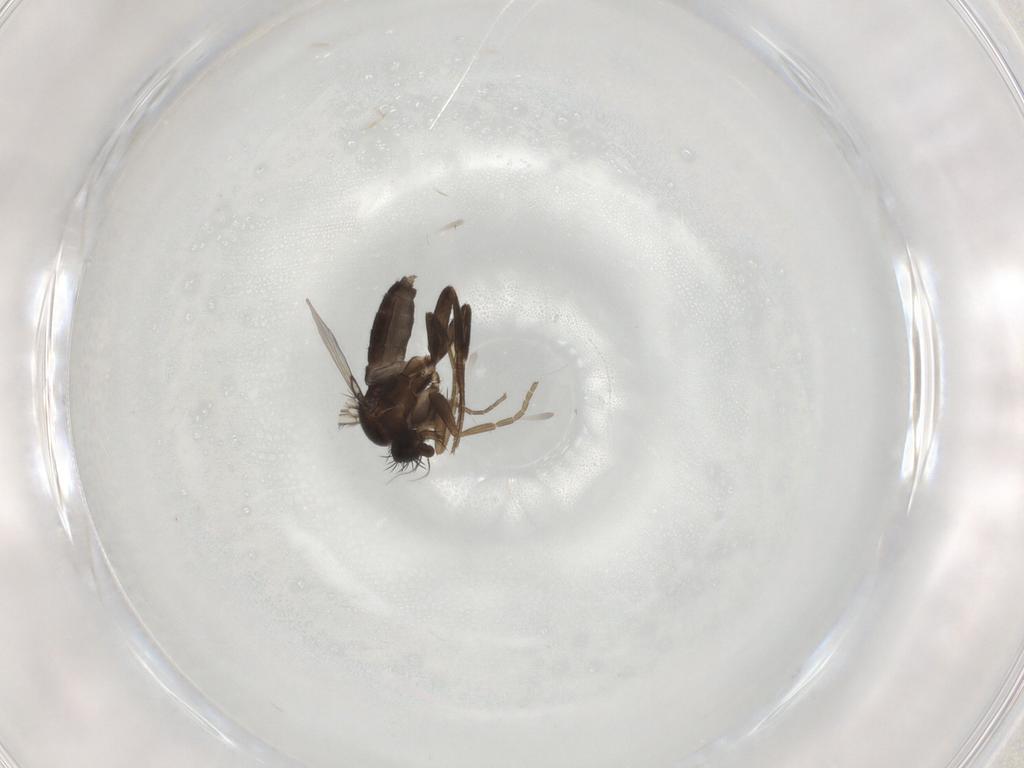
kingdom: Animalia
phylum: Arthropoda
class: Insecta
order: Diptera
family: Phoridae
